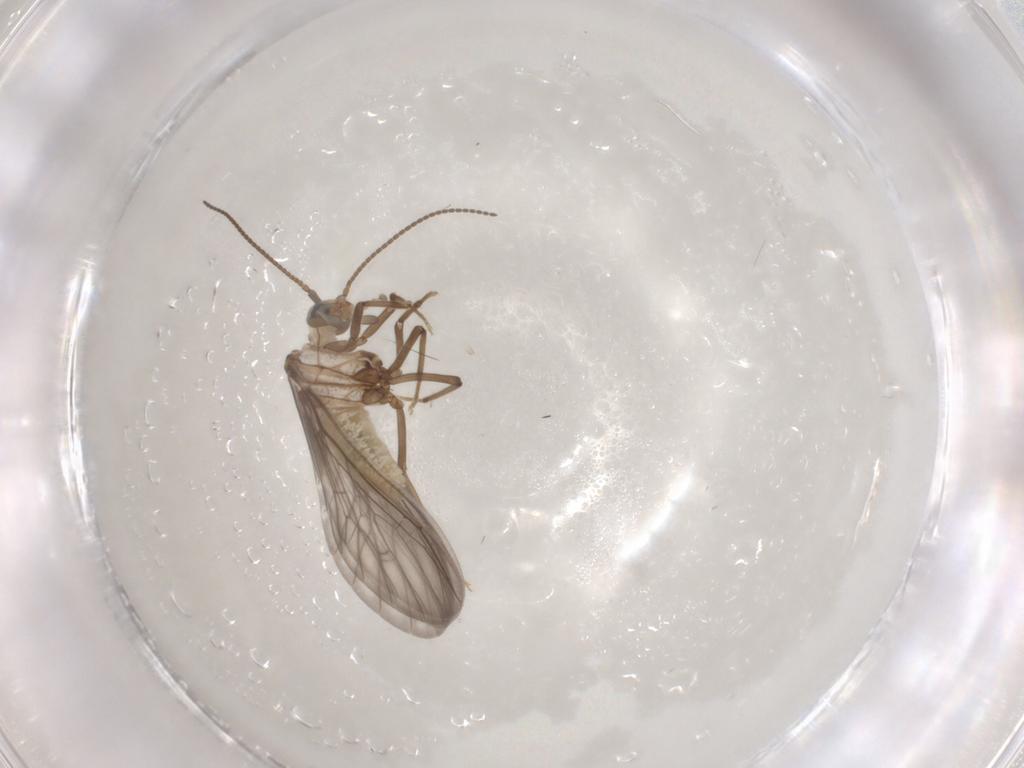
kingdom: Animalia
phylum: Arthropoda
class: Insecta
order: Neuroptera
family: Coniopterygidae
